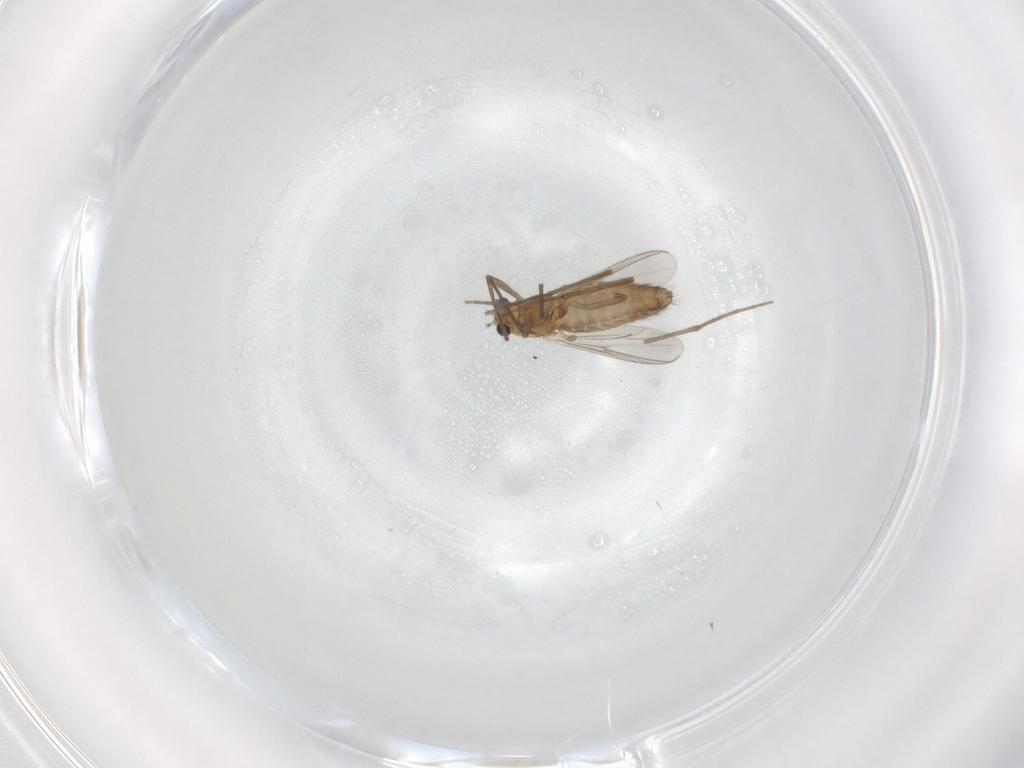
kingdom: Animalia
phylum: Arthropoda
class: Insecta
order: Diptera
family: Chironomidae
